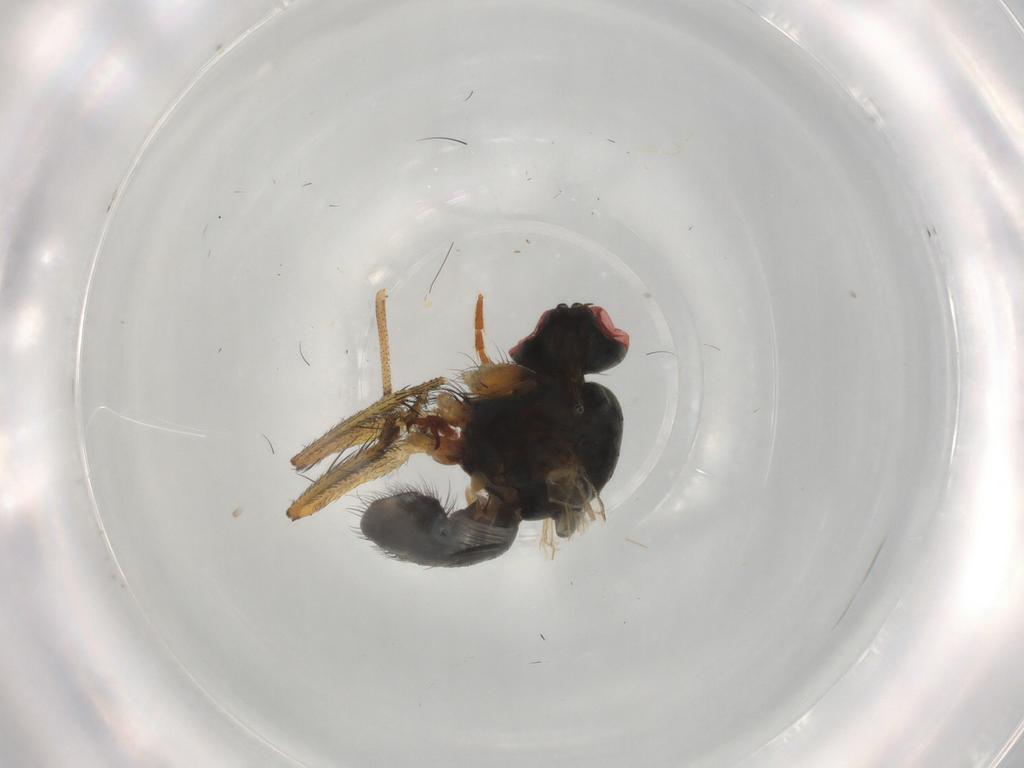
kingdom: Animalia
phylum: Arthropoda
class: Insecta
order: Diptera
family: Muscidae
